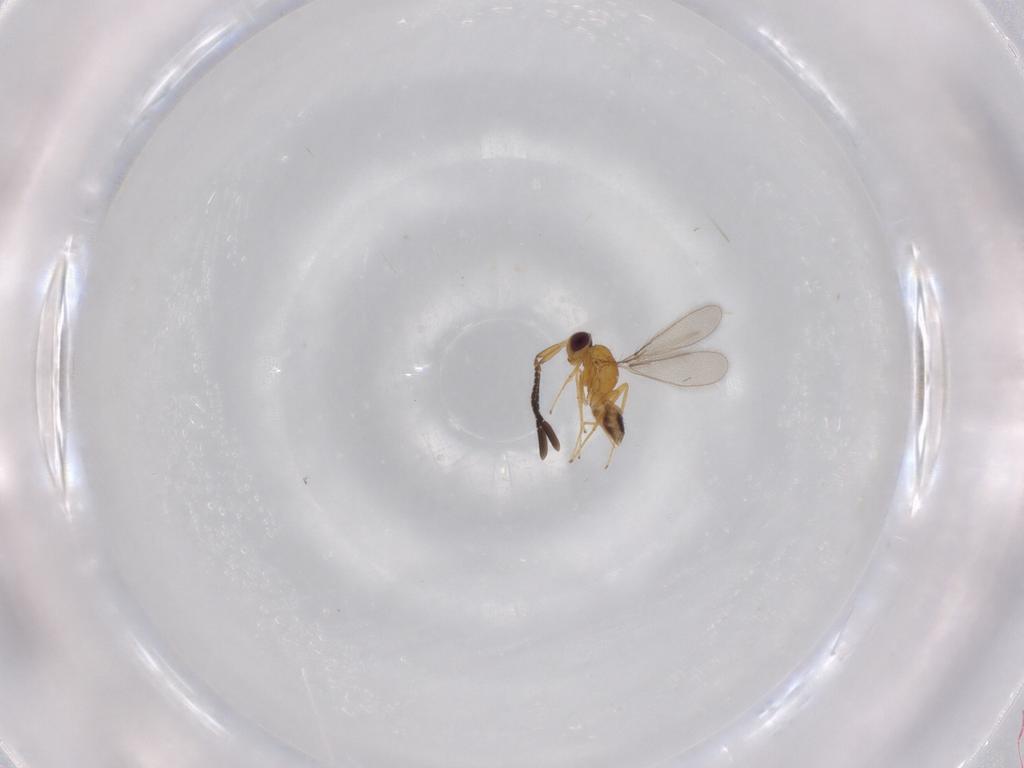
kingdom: Animalia
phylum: Arthropoda
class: Insecta
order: Hymenoptera
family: Mymaridae
